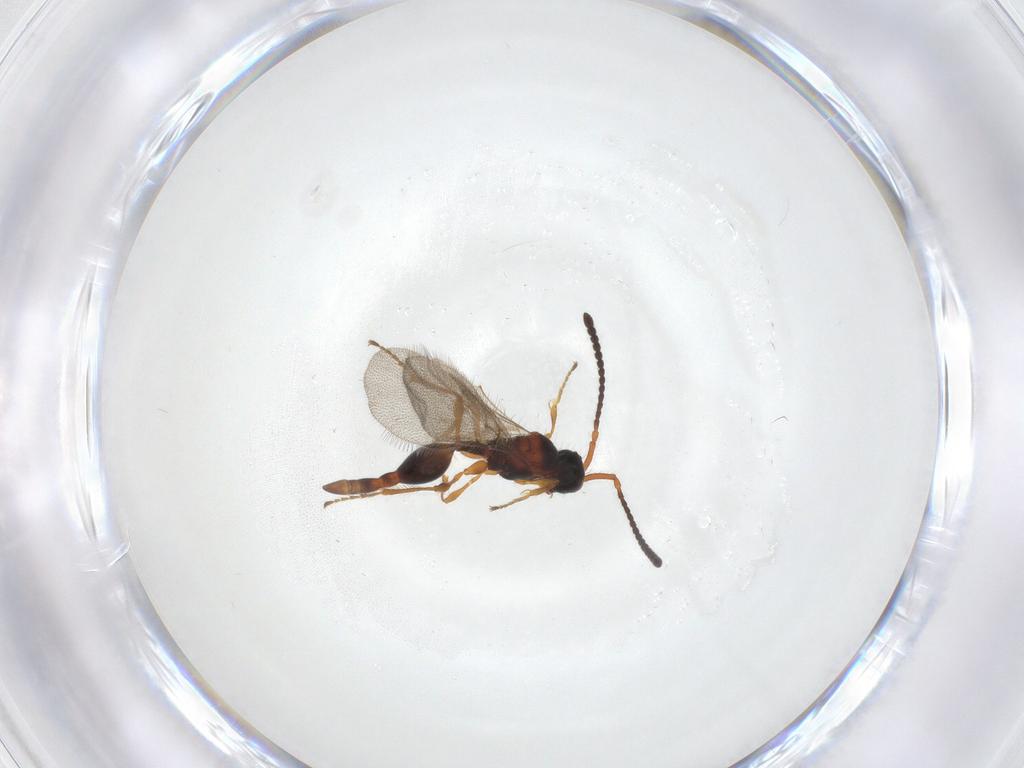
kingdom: Animalia
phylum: Arthropoda
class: Insecta
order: Hymenoptera
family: Diapriidae
